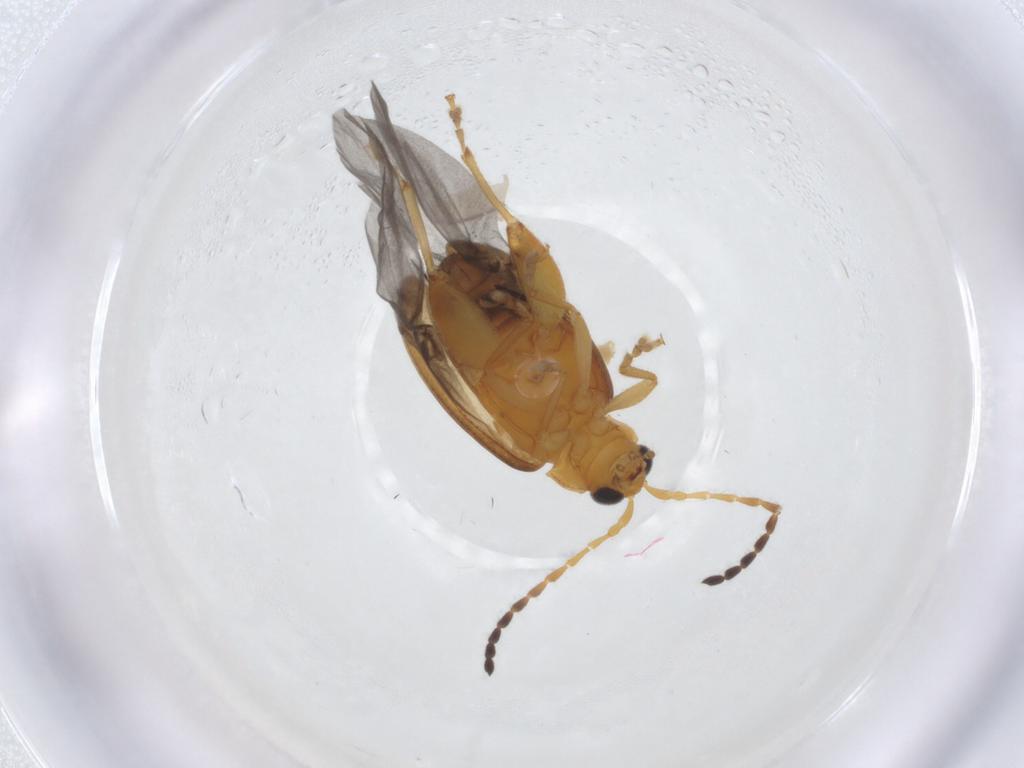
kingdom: Animalia
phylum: Arthropoda
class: Insecta
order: Coleoptera
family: Chrysomelidae
